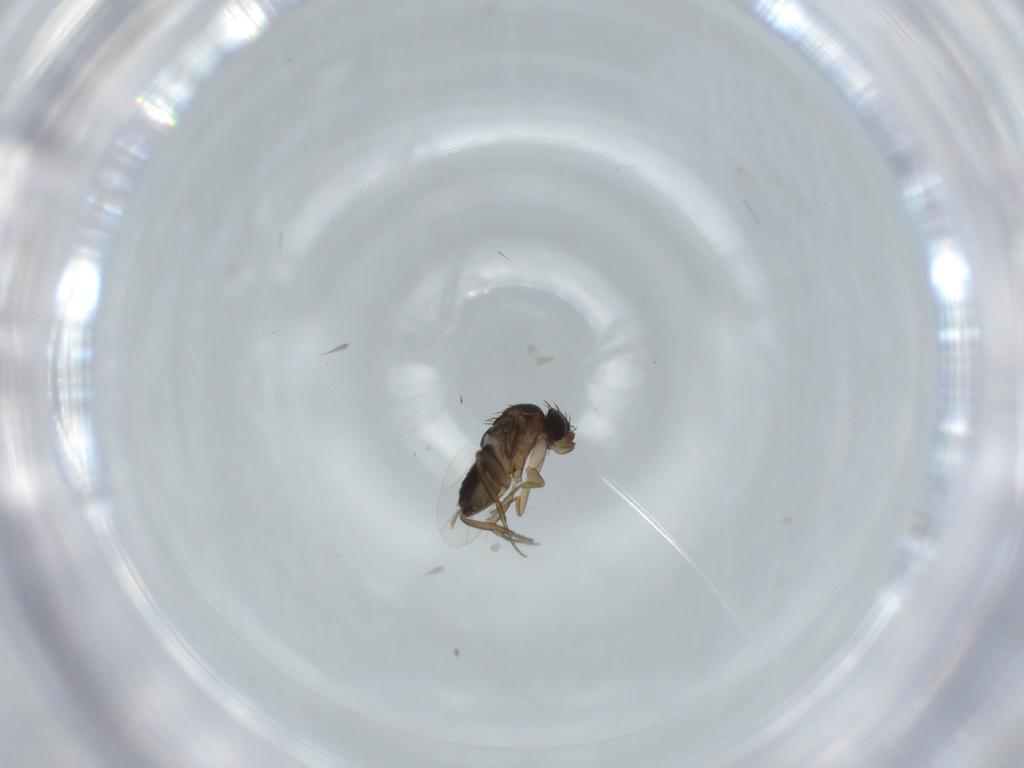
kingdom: Animalia
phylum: Arthropoda
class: Insecta
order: Diptera
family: Phoridae
